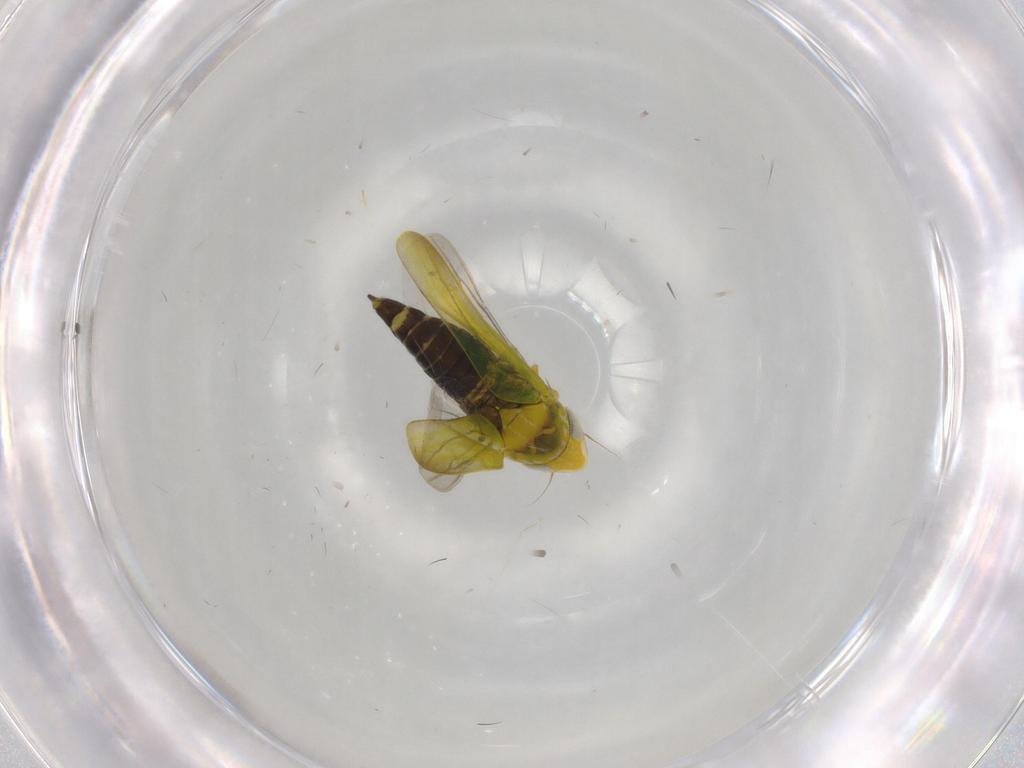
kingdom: Animalia
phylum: Arthropoda
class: Insecta
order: Hemiptera
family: Cicadellidae
